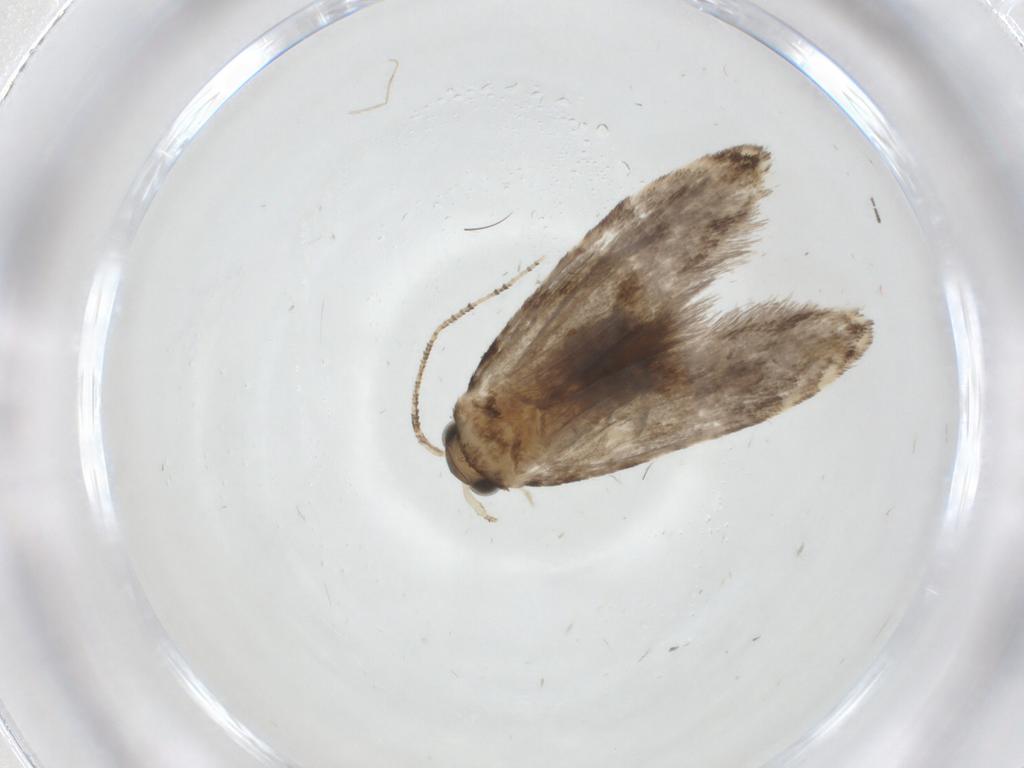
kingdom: Animalia
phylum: Arthropoda
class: Insecta
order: Lepidoptera
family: Tineidae
